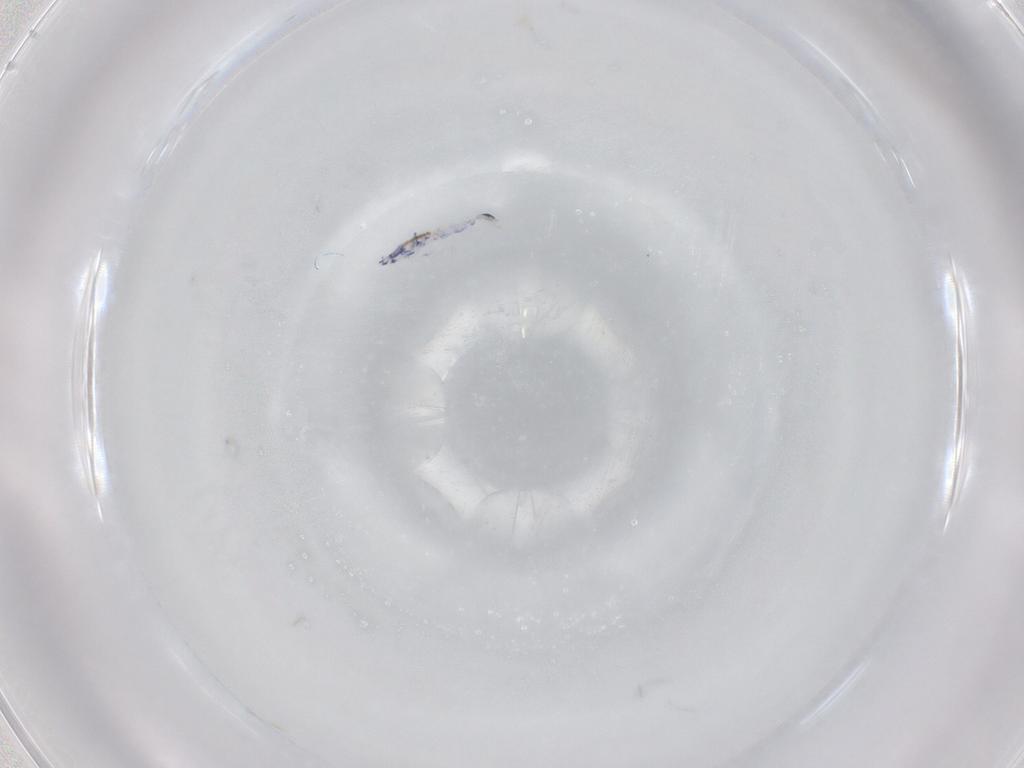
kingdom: Animalia
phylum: Arthropoda
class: Collembola
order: Entomobryomorpha
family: Entomobryidae
